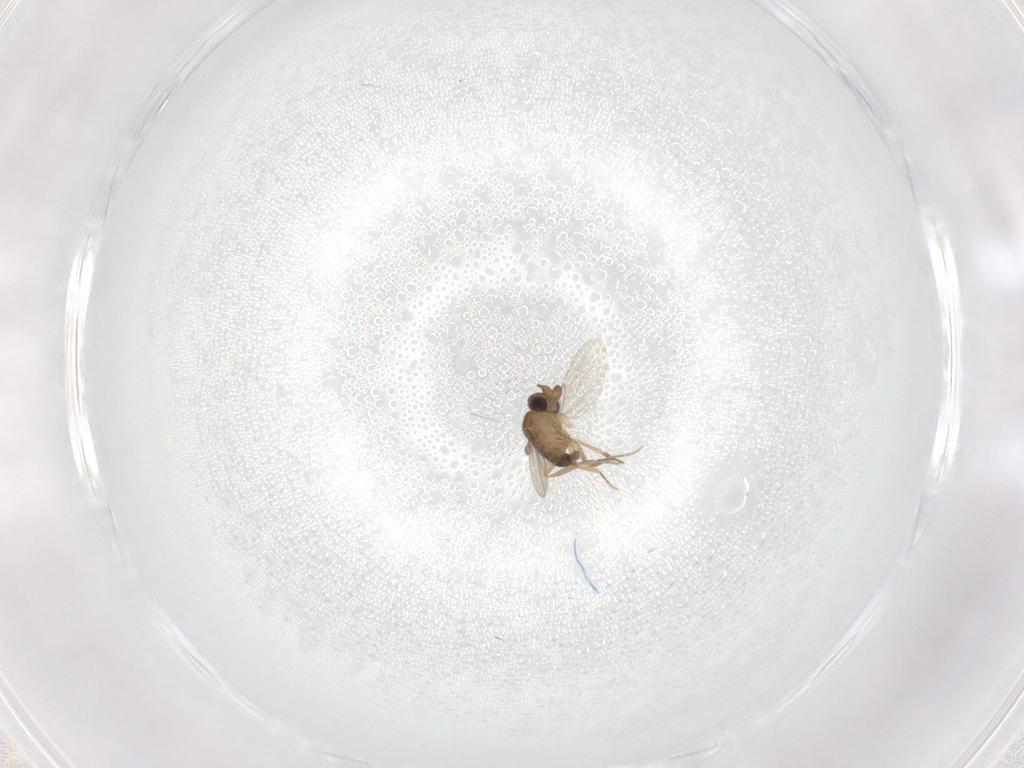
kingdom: Animalia
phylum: Arthropoda
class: Insecta
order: Diptera
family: Phoridae
